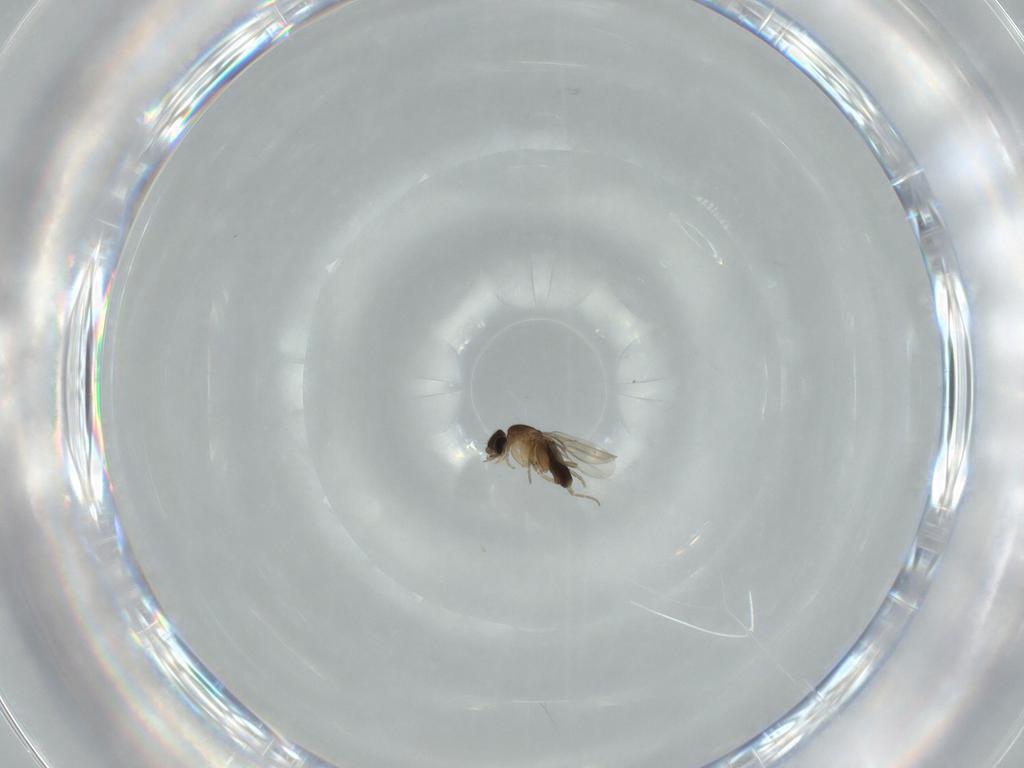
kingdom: Animalia
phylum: Arthropoda
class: Insecta
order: Diptera
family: Phoridae
